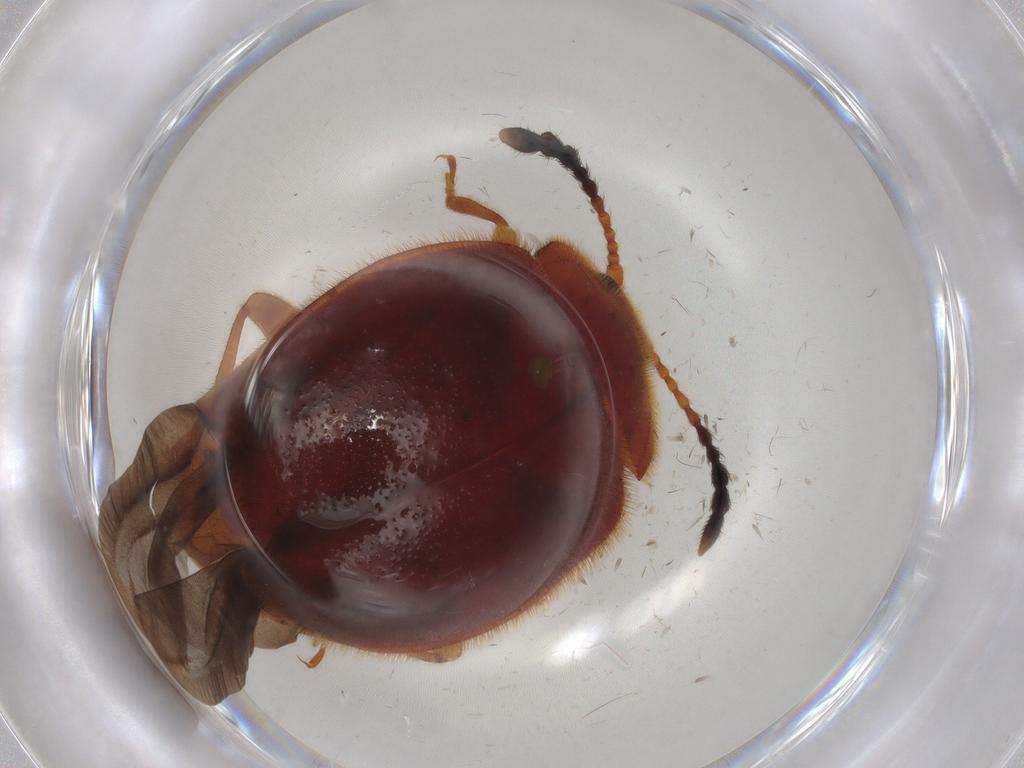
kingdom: Animalia
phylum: Arthropoda
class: Insecta
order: Coleoptera
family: Endomychidae
